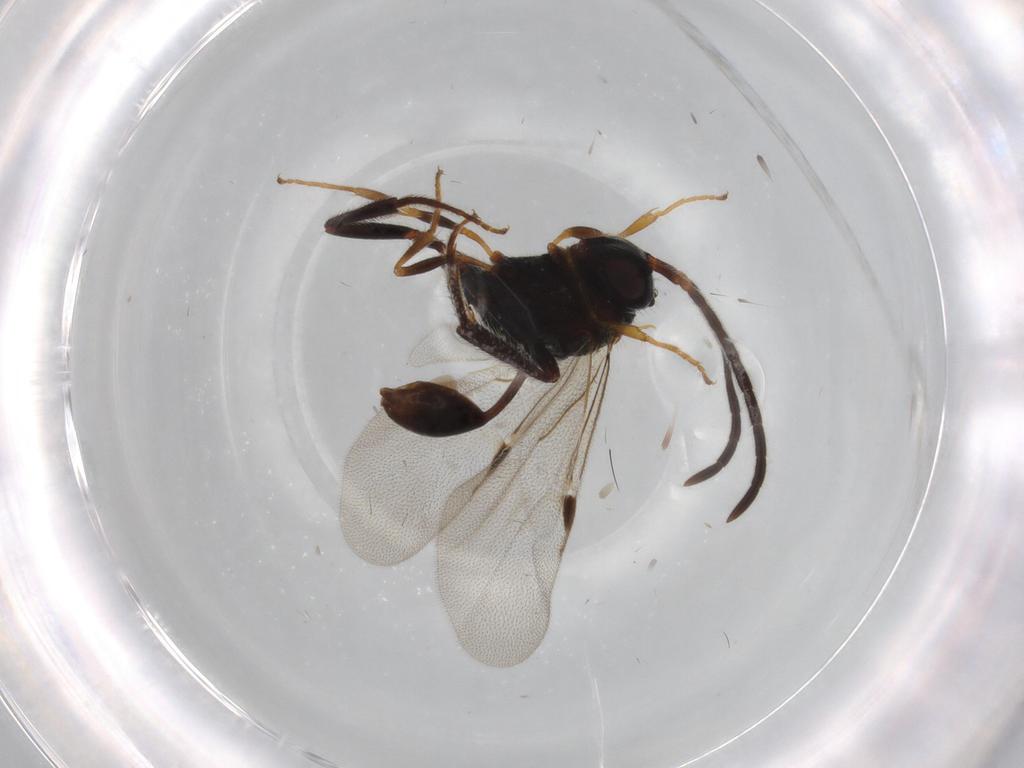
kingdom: Animalia
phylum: Arthropoda
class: Insecta
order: Hymenoptera
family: Evaniidae
